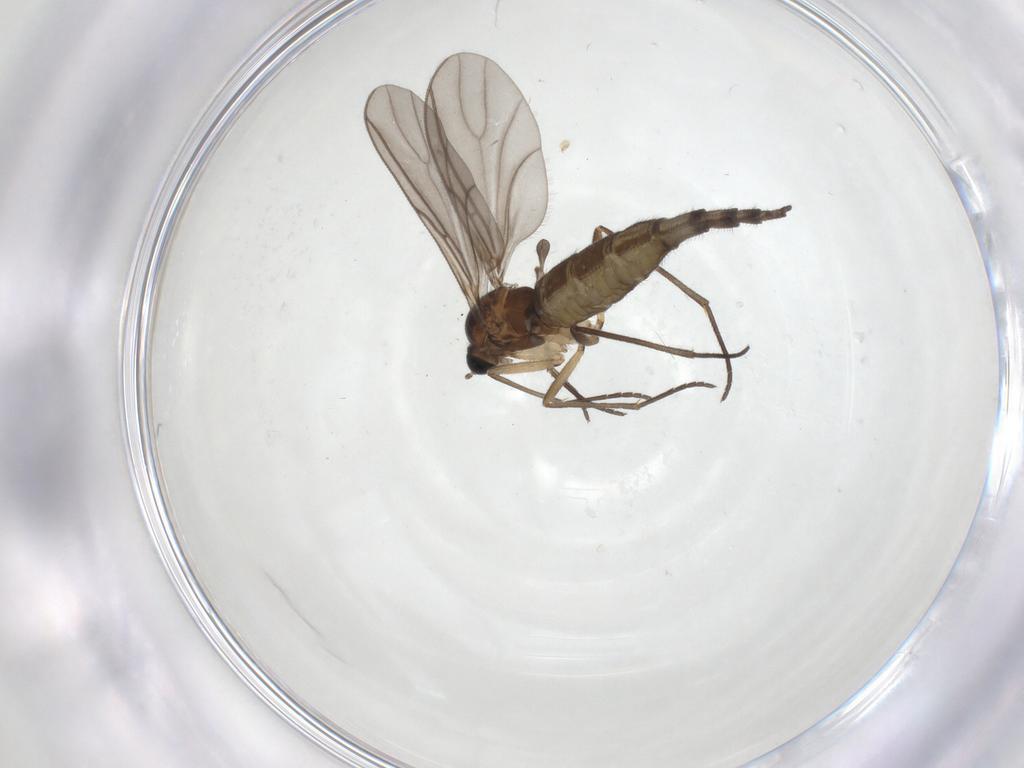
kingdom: Animalia
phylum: Arthropoda
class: Insecta
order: Diptera
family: Sciaridae
